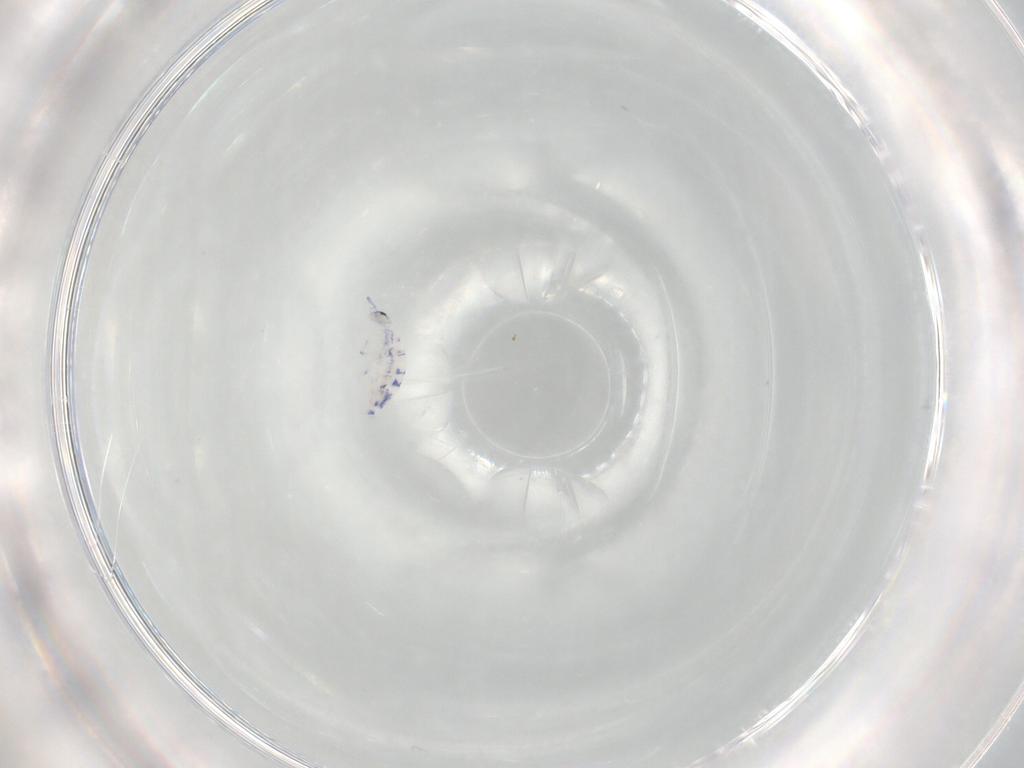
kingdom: Animalia
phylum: Arthropoda
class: Collembola
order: Entomobryomorpha
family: Entomobryidae
